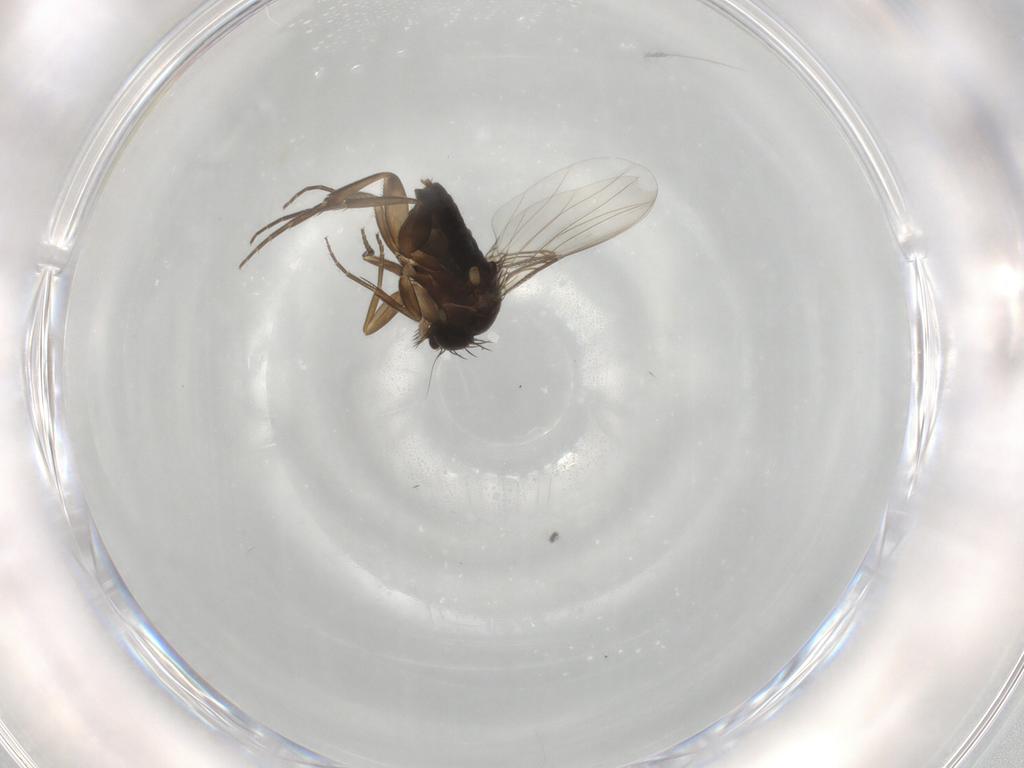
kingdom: Animalia
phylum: Arthropoda
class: Insecta
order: Diptera
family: Phoridae
